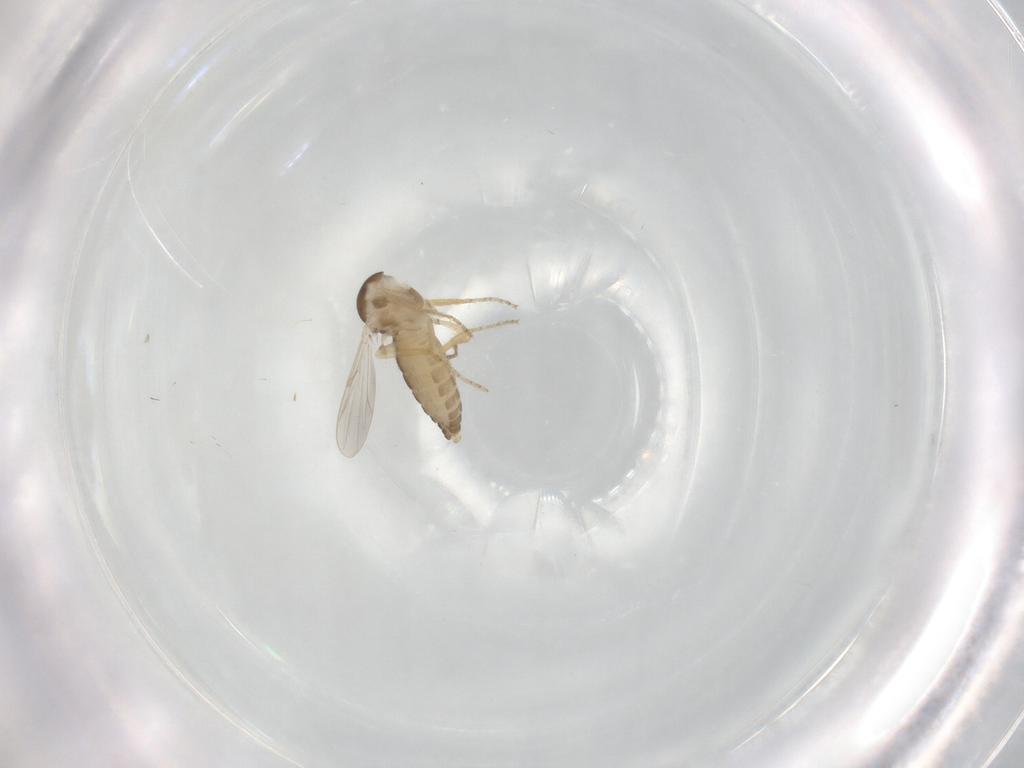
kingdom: Animalia
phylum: Arthropoda
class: Insecta
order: Diptera
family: Ceratopogonidae
